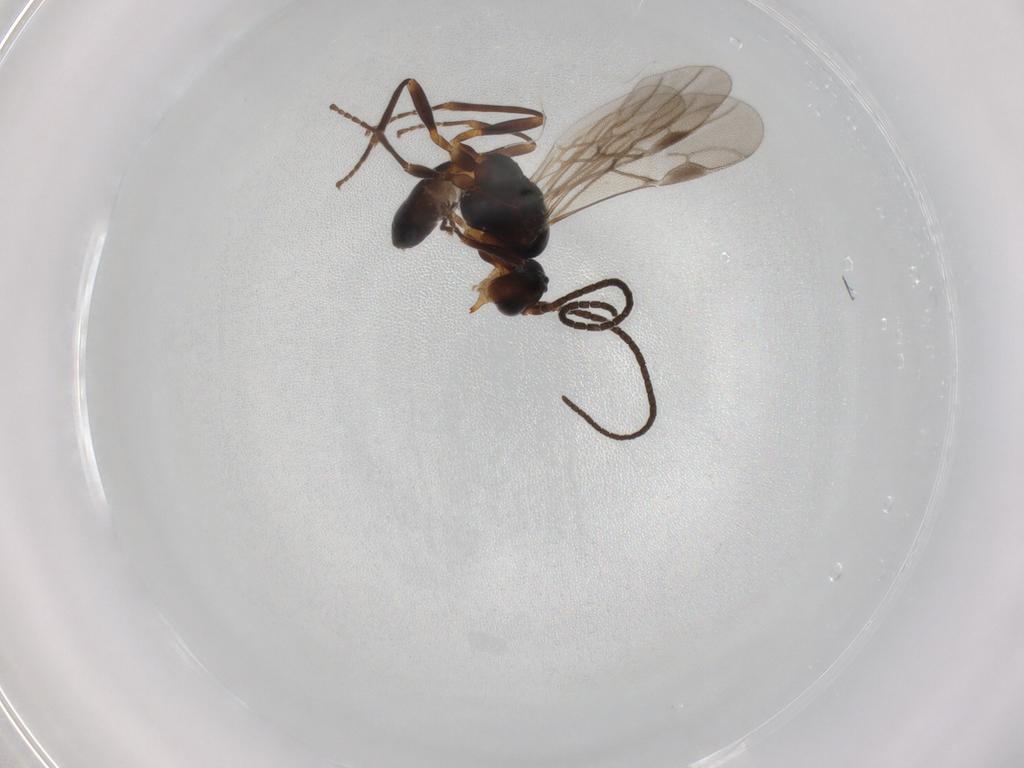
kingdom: Animalia
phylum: Arthropoda
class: Insecta
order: Hymenoptera
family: Braconidae
